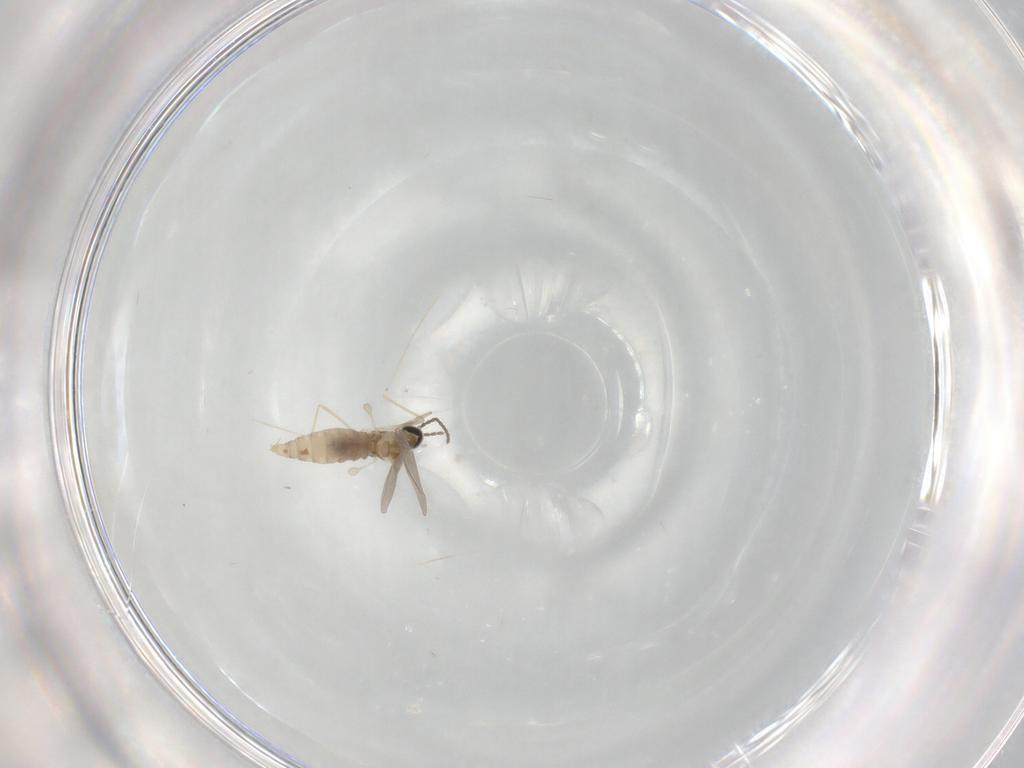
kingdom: Animalia
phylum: Arthropoda
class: Insecta
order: Diptera
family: Cecidomyiidae
